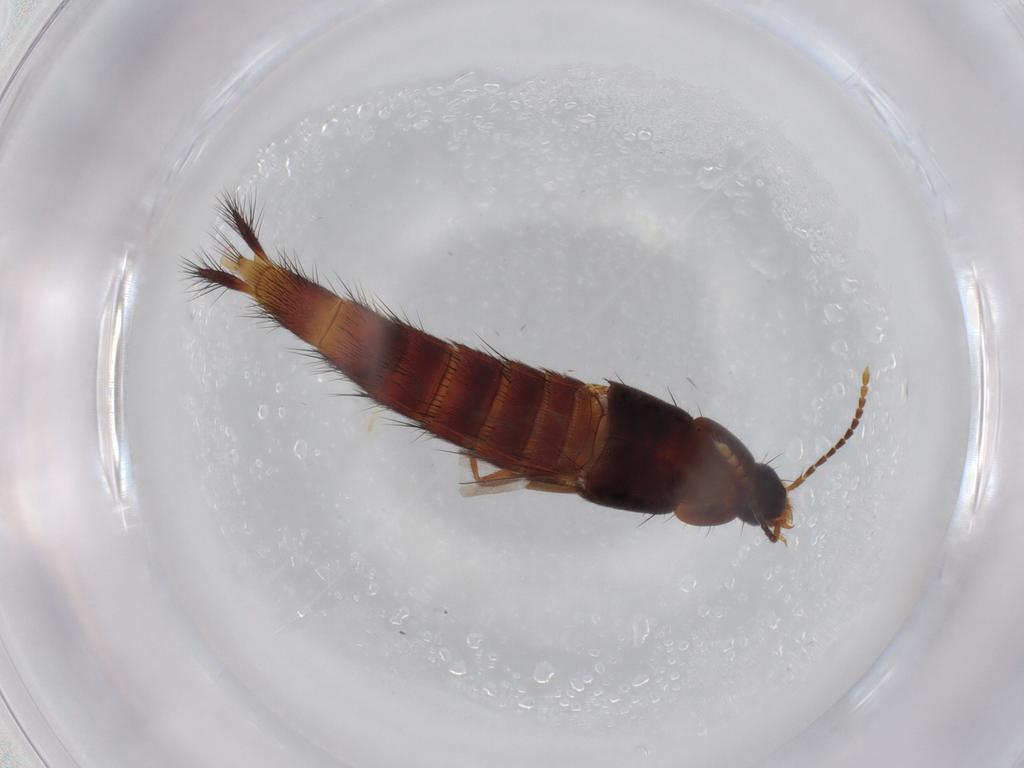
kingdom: Animalia
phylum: Arthropoda
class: Insecta
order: Coleoptera
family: Staphylinidae
